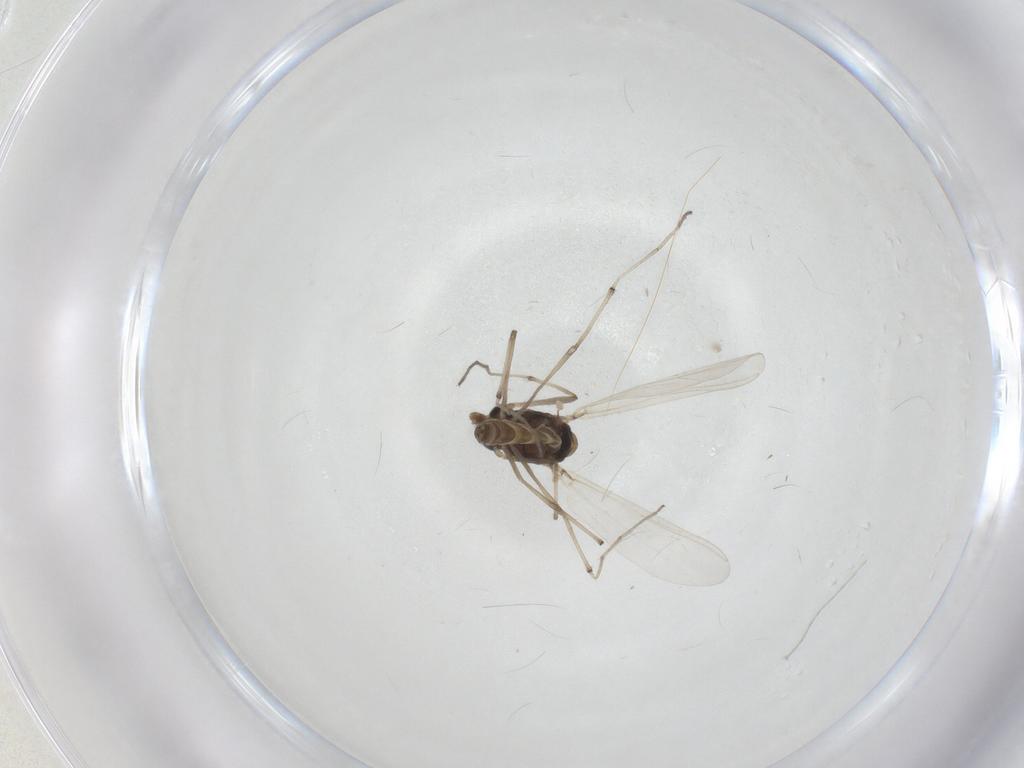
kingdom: Animalia
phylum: Arthropoda
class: Insecta
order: Diptera
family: Chironomidae
